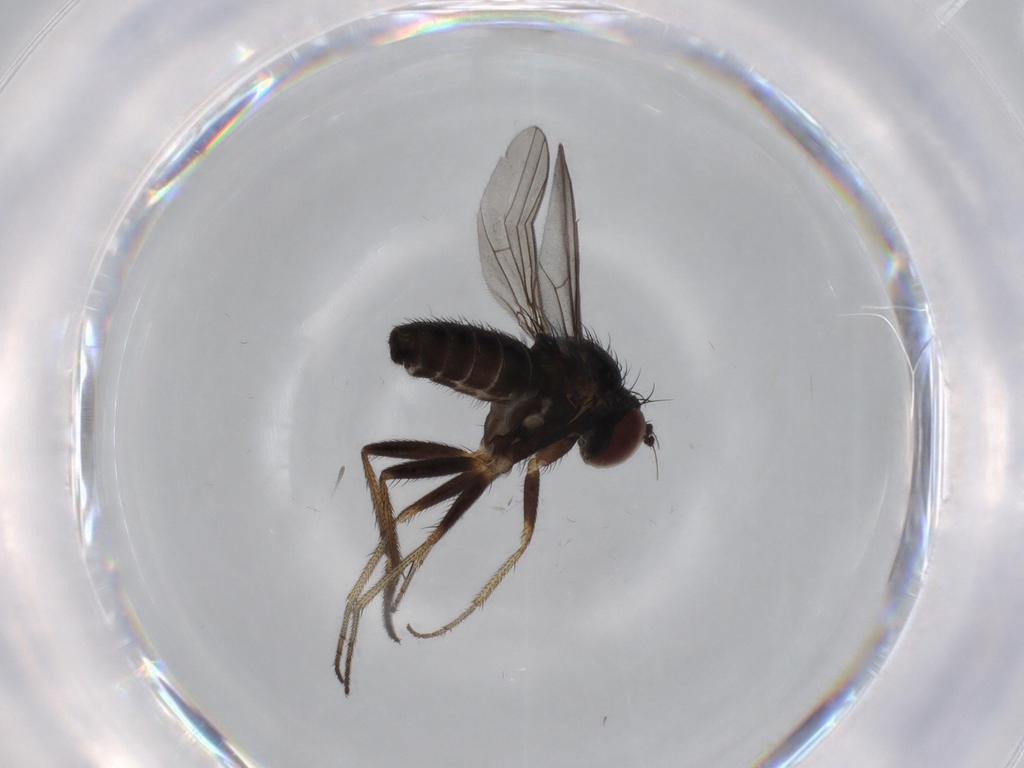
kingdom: Animalia
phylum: Arthropoda
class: Insecta
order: Diptera
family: Dolichopodidae
